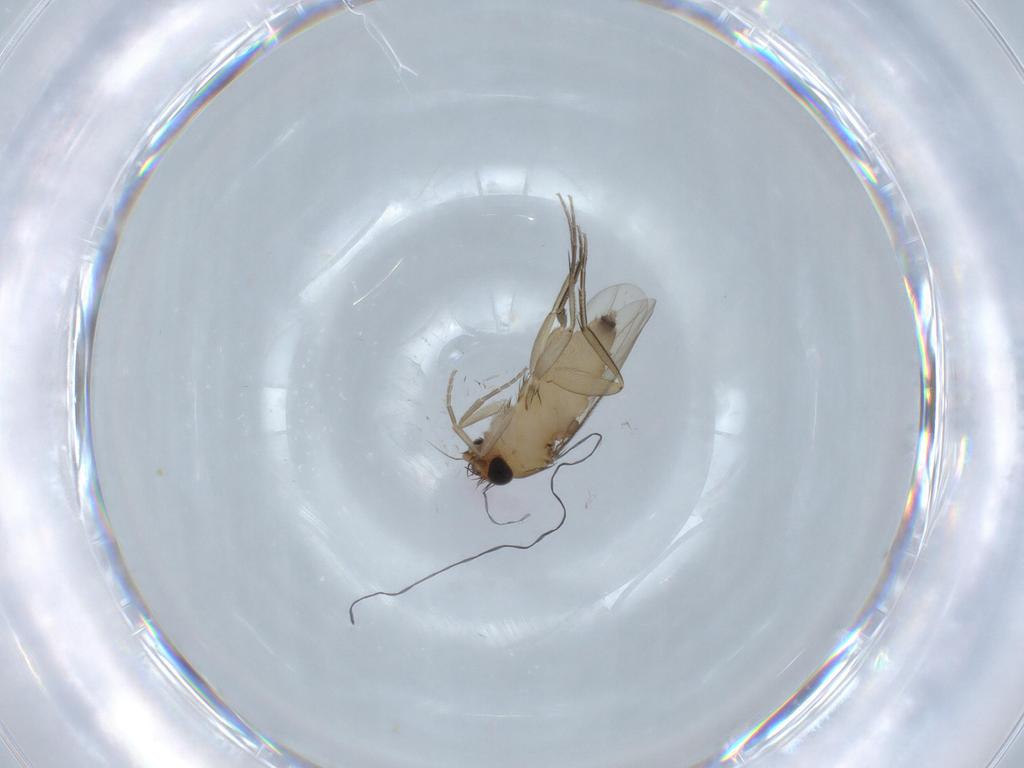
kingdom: Animalia
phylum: Arthropoda
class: Insecta
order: Diptera
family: Phoridae
